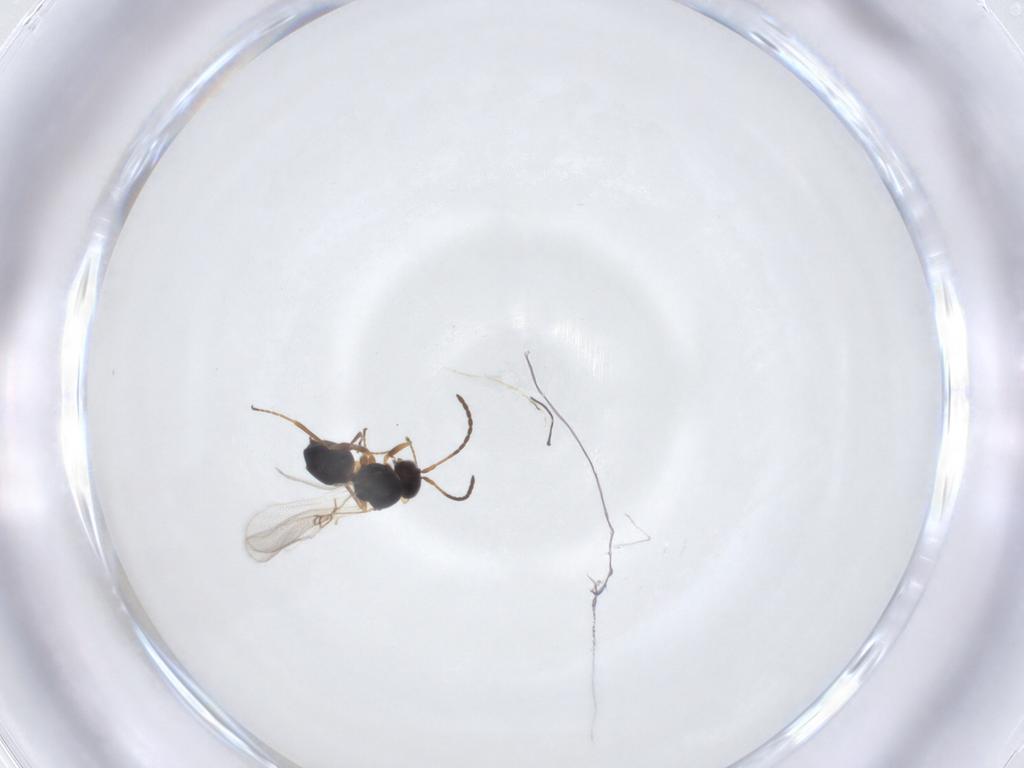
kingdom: Animalia
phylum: Arthropoda
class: Insecta
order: Hymenoptera
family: Figitidae
